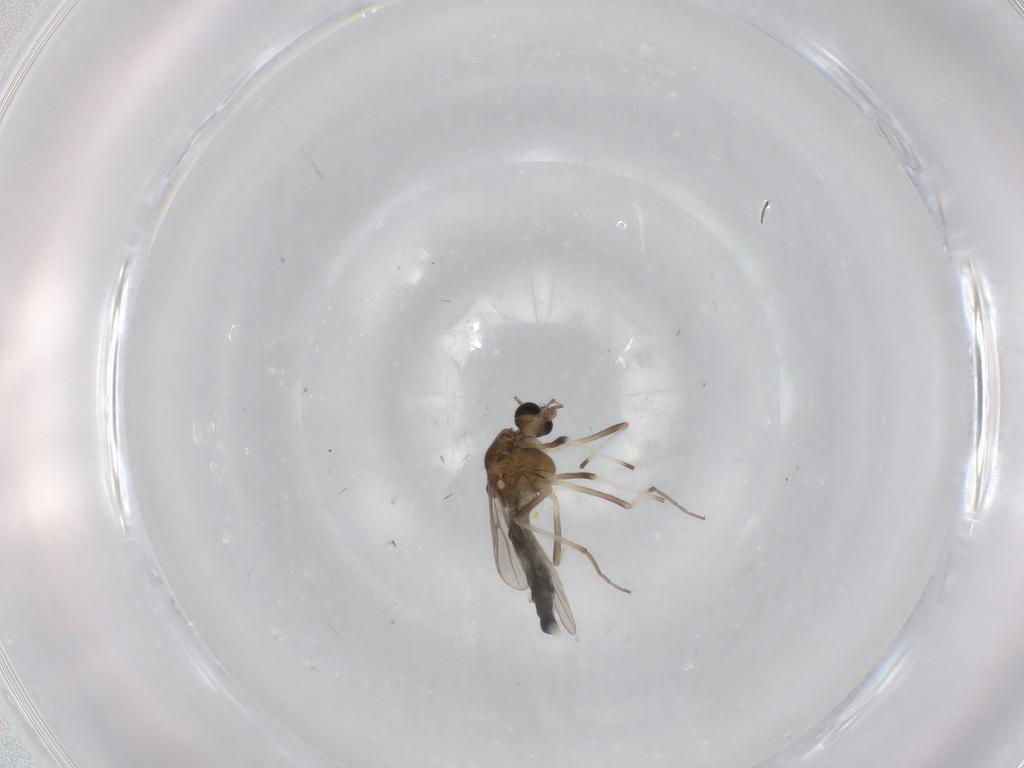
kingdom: Animalia
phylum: Arthropoda
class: Insecta
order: Diptera
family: Chironomidae
